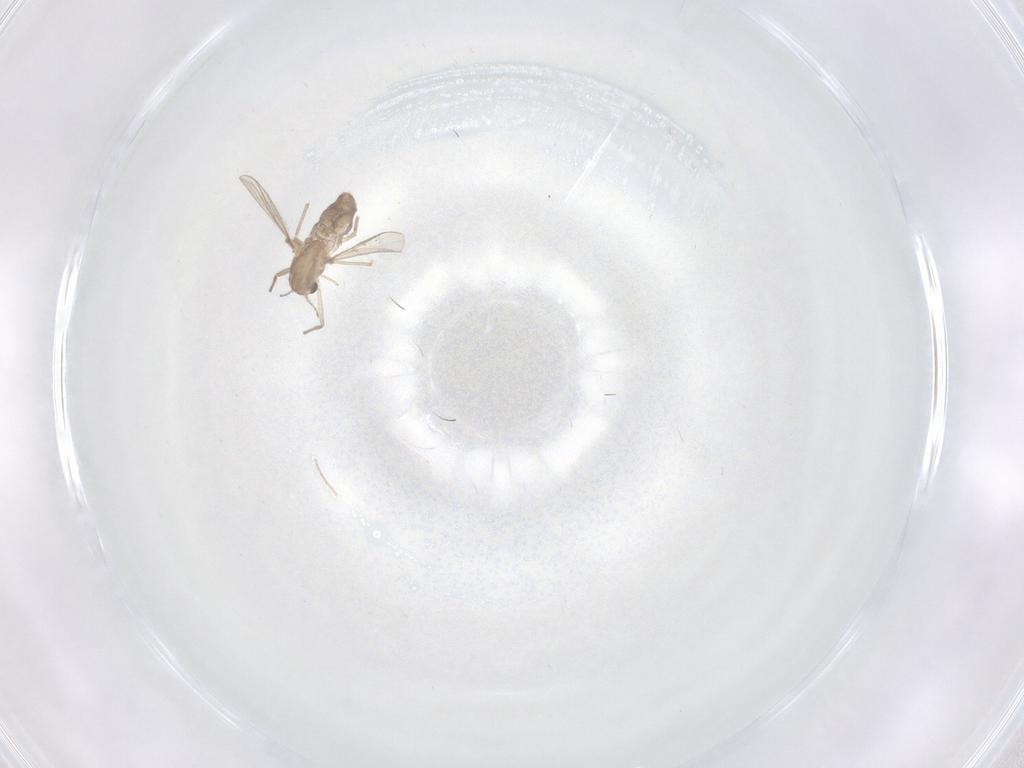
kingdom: Animalia
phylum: Arthropoda
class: Insecta
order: Diptera
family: Chironomidae
